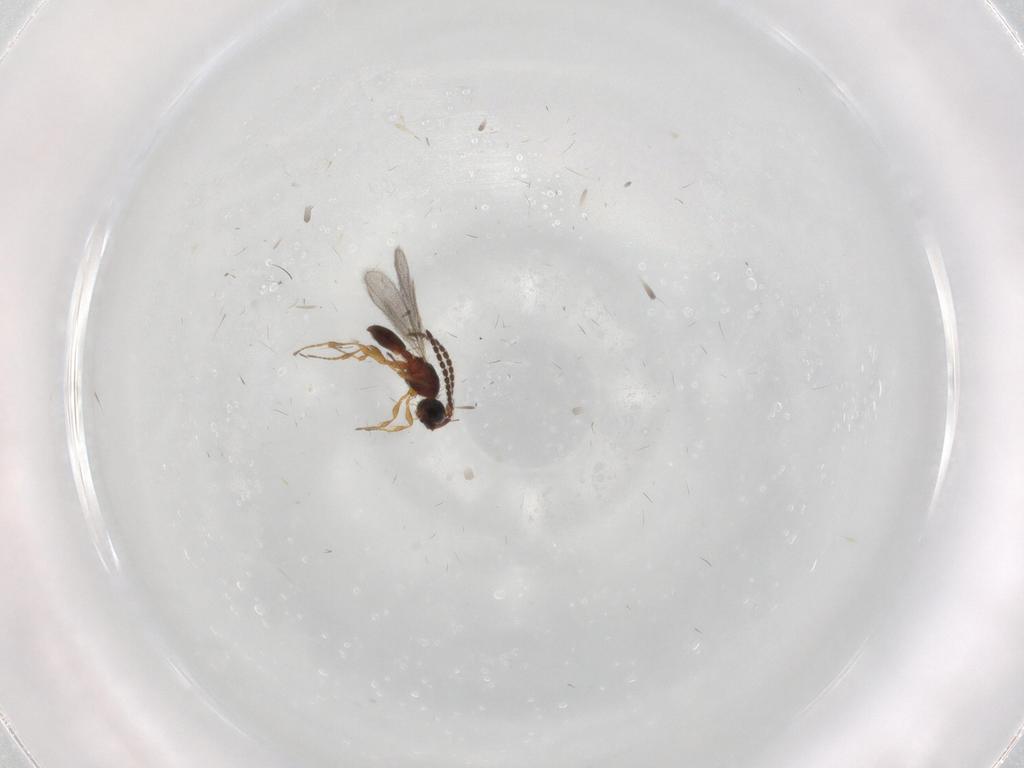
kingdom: Animalia
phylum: Arthropoda
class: Insecta
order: Hymenoptera
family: Diapriidae
